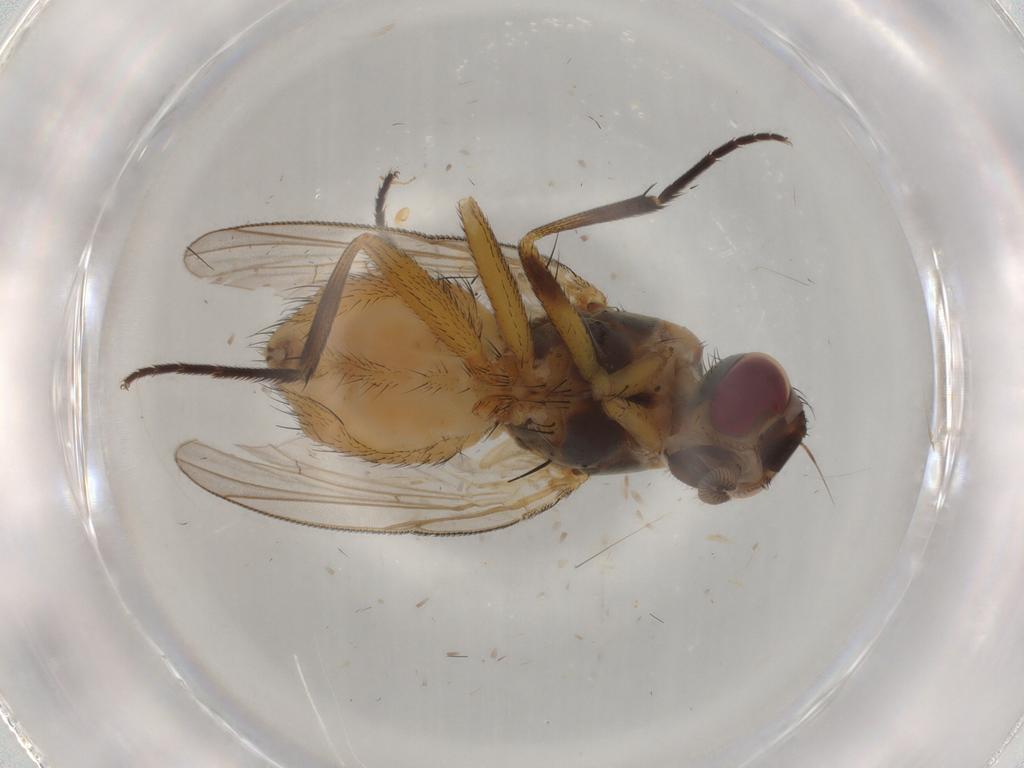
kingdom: Animalia
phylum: Arthropoda
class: Insecta
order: Diptera
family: Muscidae
